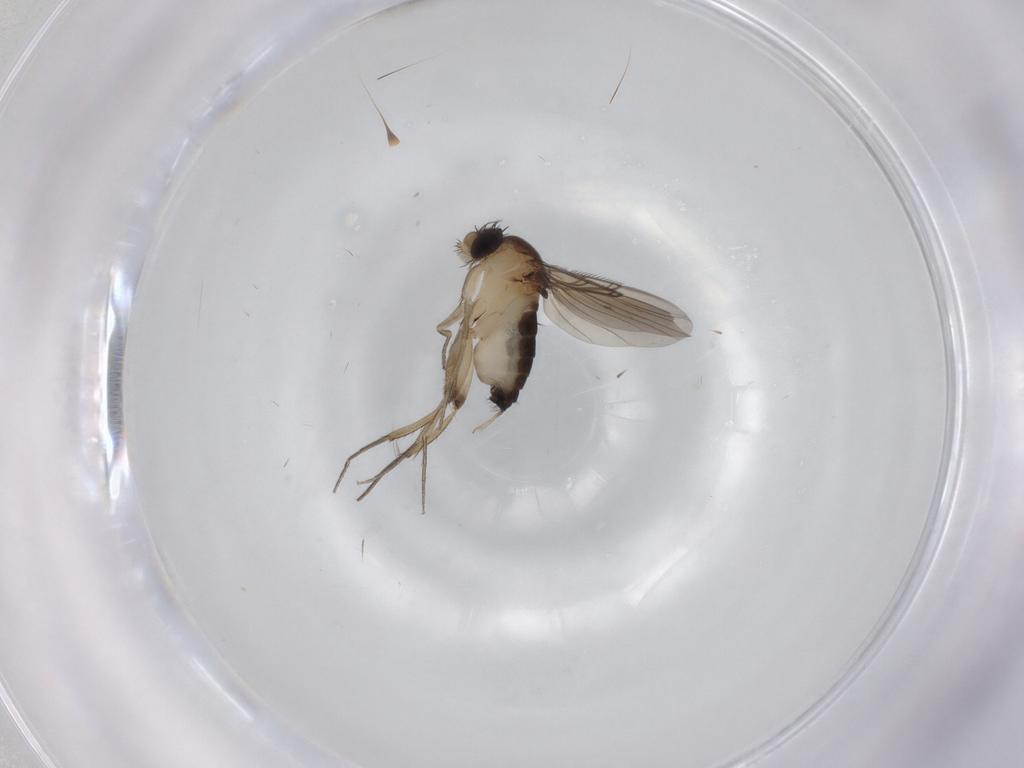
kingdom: Animalia
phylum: Arthropoda
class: Insecta
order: Diptera
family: Phoridae
